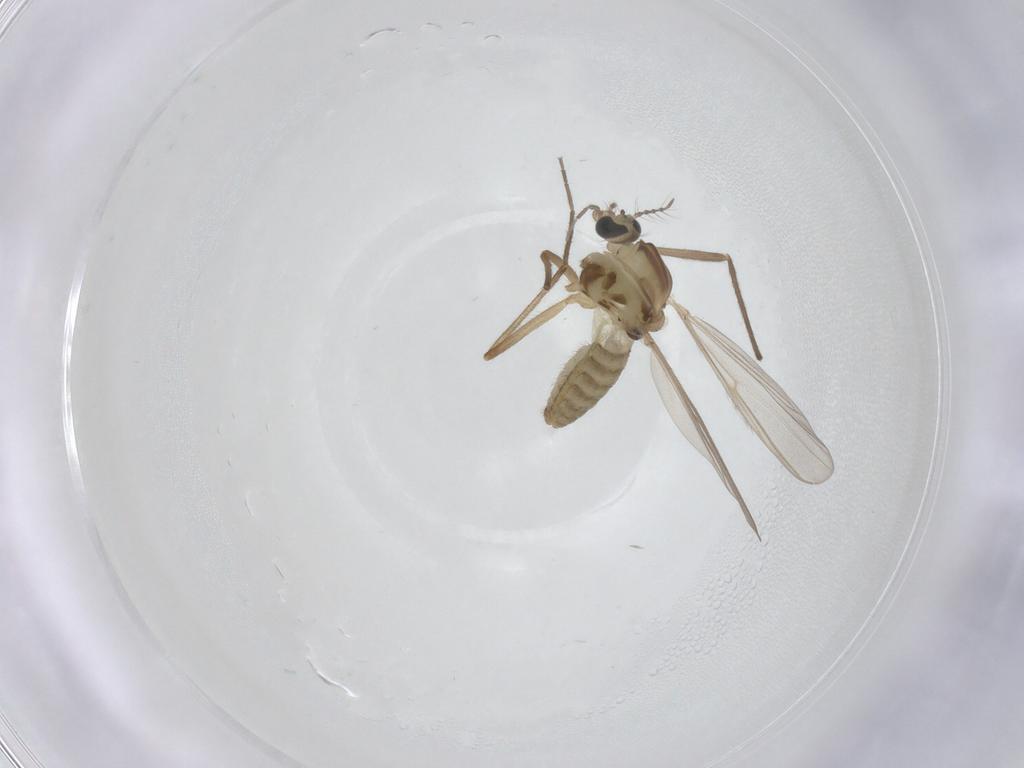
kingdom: Animalia
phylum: Arthropoda
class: Insecta
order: Diptera
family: Chironomidae
